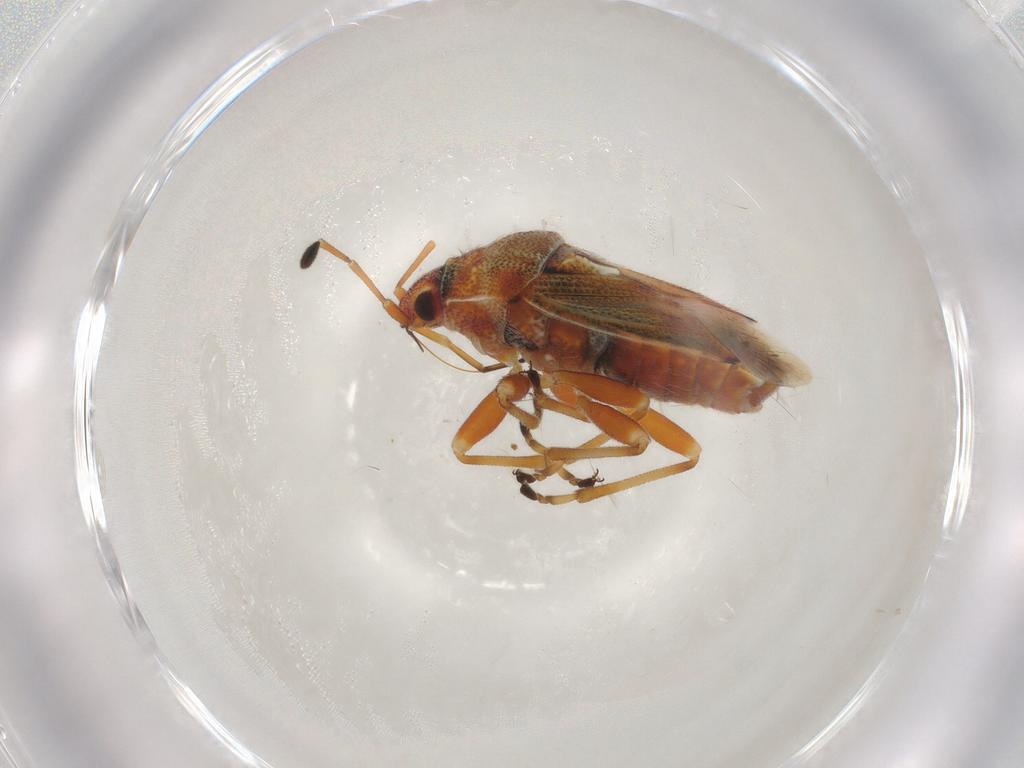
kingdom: Animalia
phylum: Arthropoda
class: Insecta
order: Hemiptera
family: Lygaeidae
